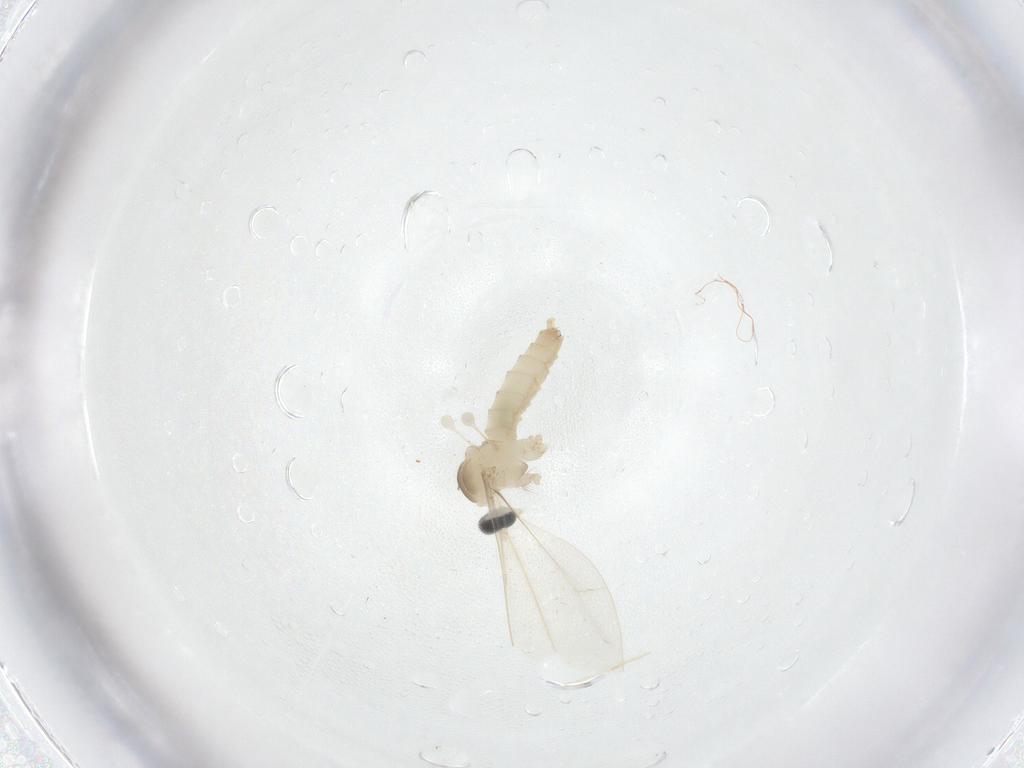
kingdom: Animalia
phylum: Arthropoda
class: Insecta
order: Diptera
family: Cecidomyiidae
